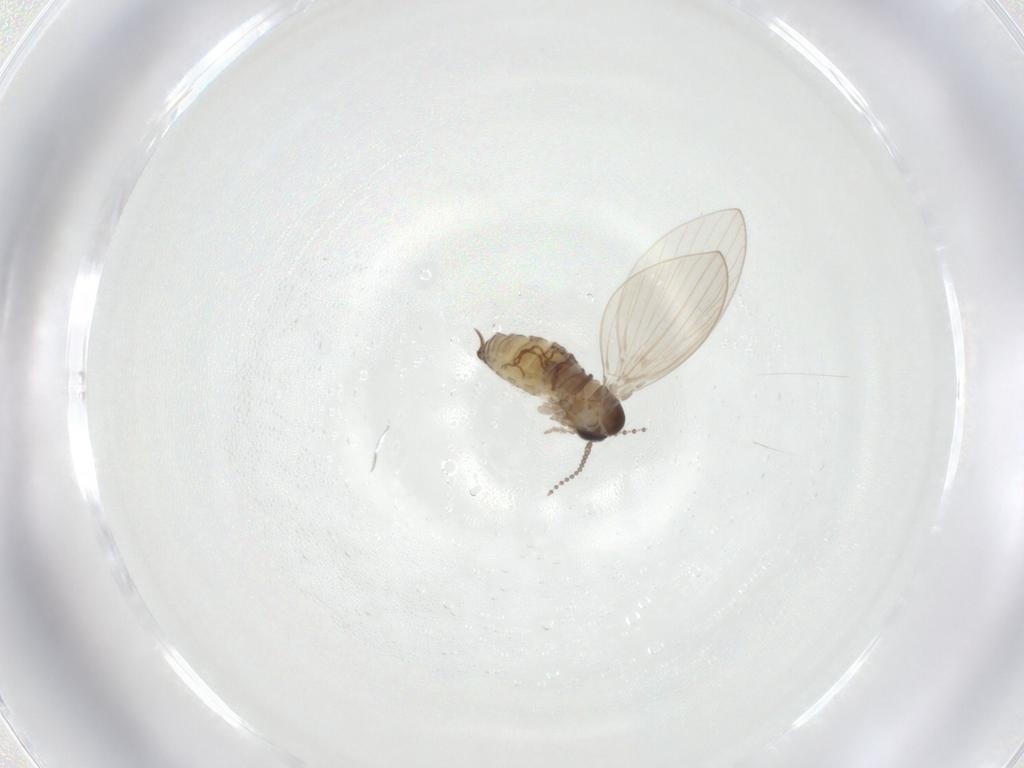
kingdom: Animalia
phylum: Arthropoda
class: Insecta
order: Diptera
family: Psychodidae
